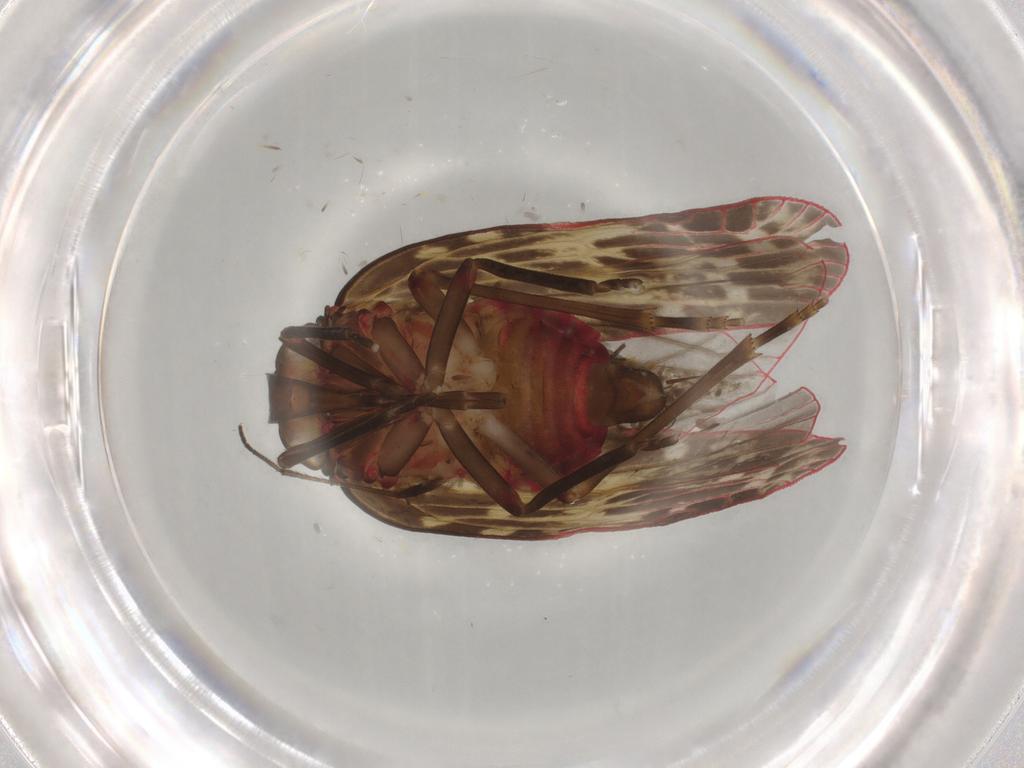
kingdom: Animalia
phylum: Arthropoda
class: Insecta
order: Hemiptera
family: Achilidae
